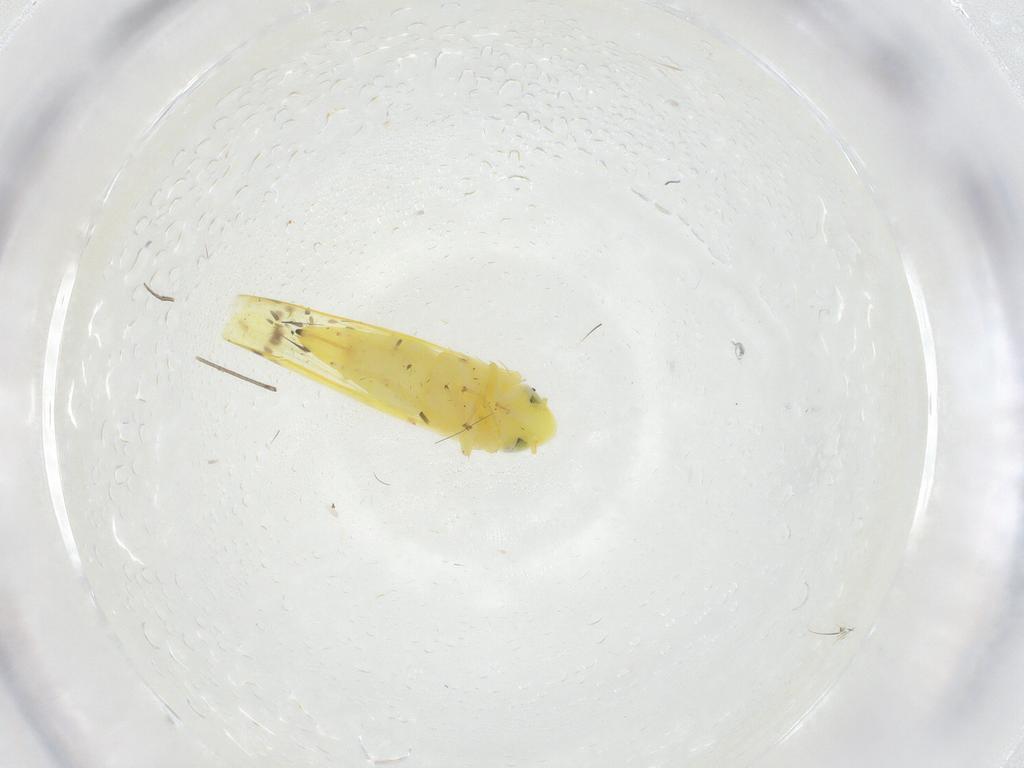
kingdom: Animalia
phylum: Arthropoda
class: Insecta
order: Hemiptera
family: Cicadellidae
